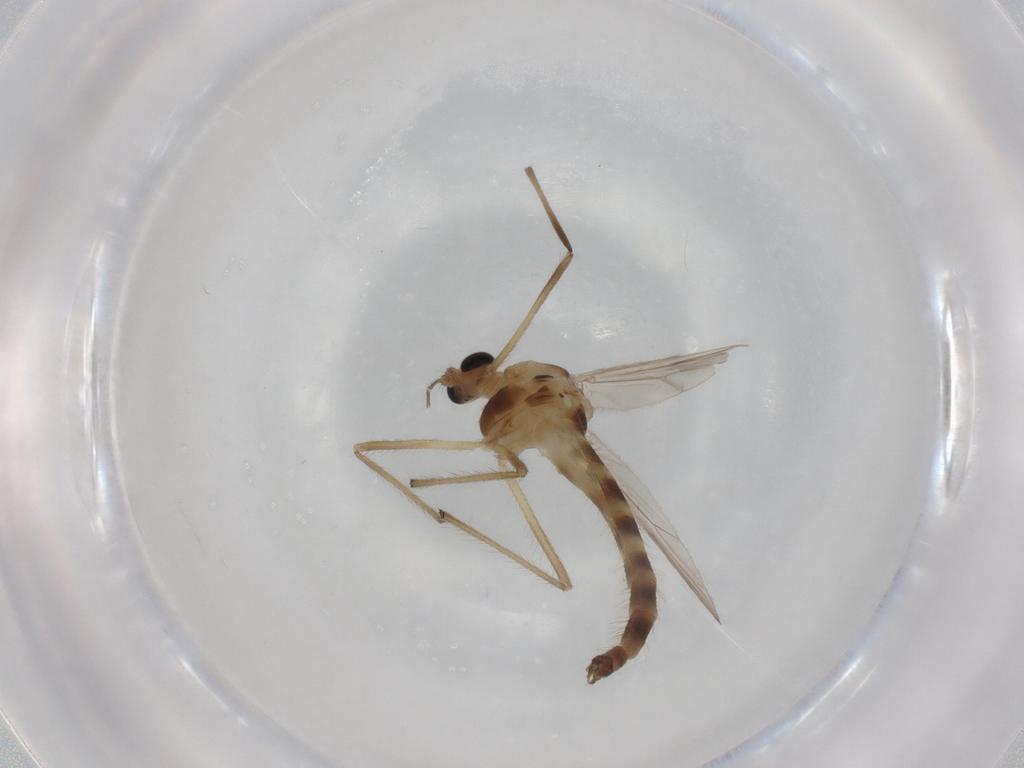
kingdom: Animalia
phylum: Arthropoda
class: Insecta
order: Diptera
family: Chironomidae
